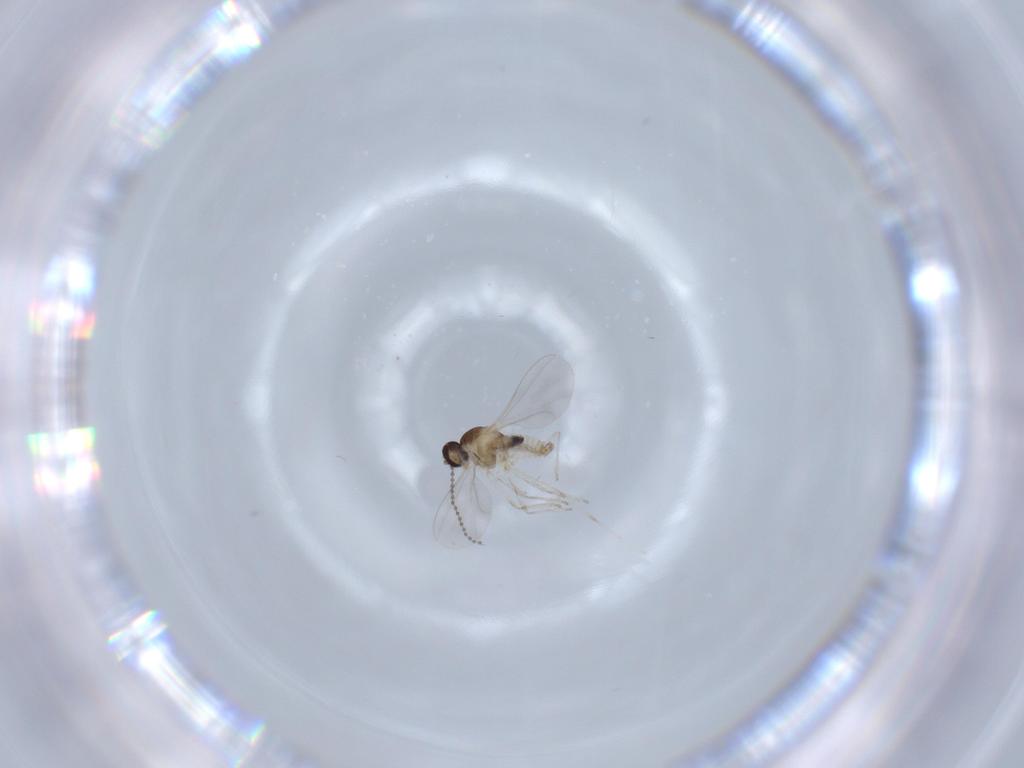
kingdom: Animalia
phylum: Arthropoda
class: Insecta
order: Diptera
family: Cecidomyiidae
